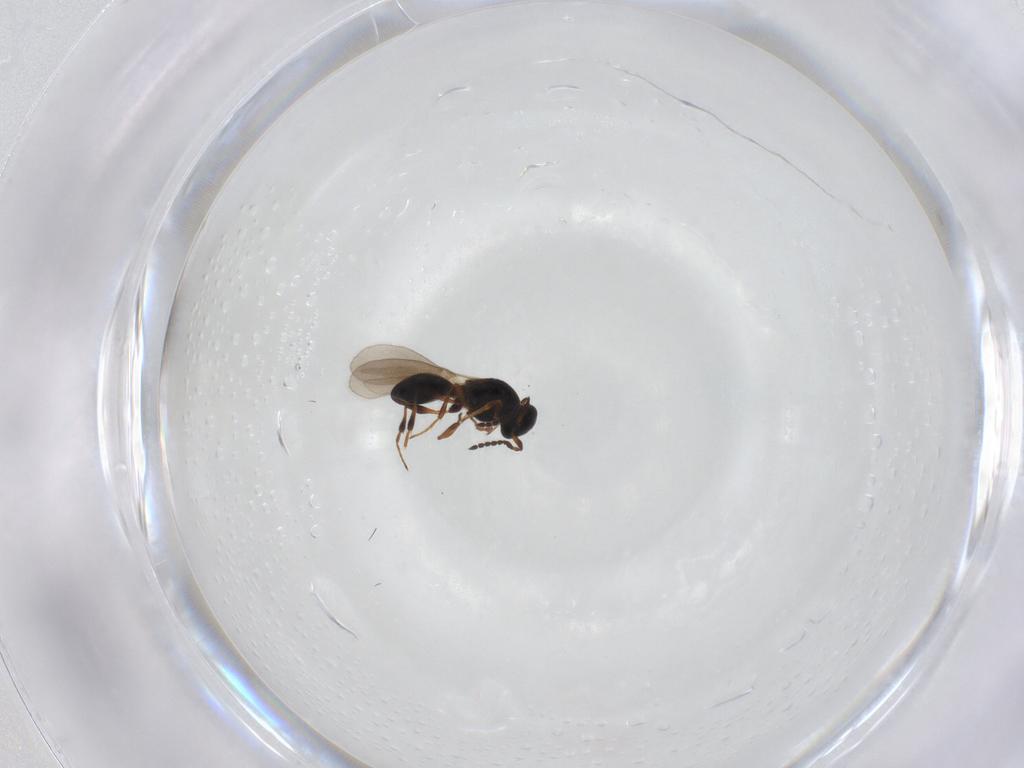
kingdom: Animalia
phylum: Arthropoda
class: Insecta
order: Hymenoptera
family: Platygastridae
